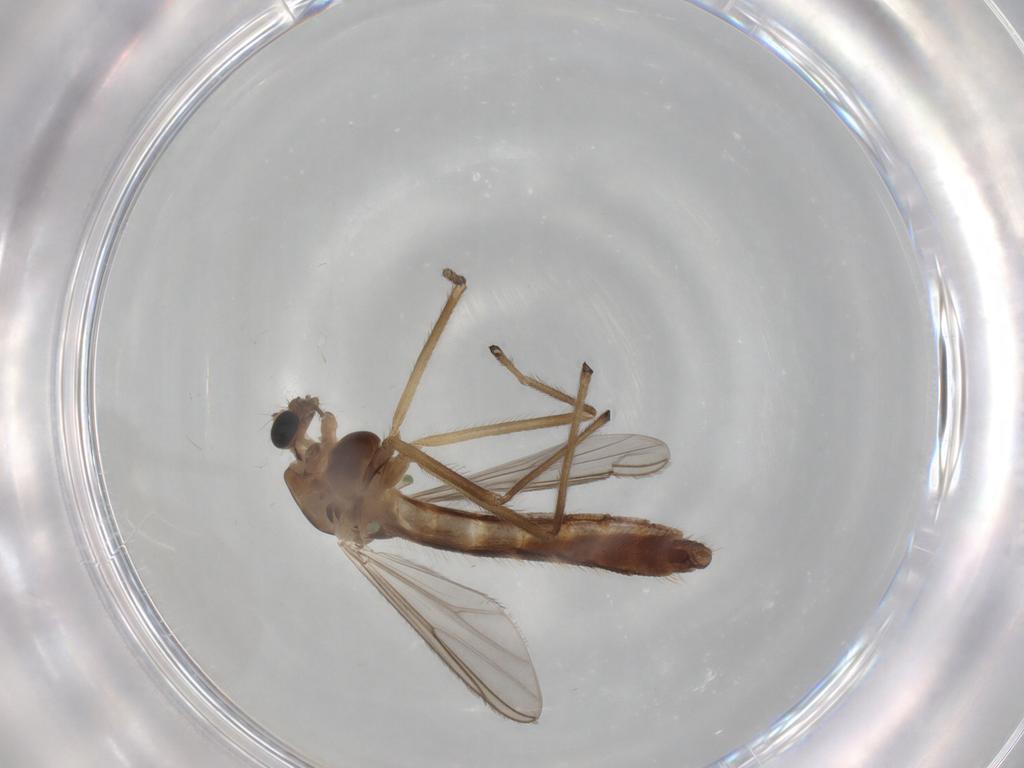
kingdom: Animalia
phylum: Arthropoda
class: Insecta
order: Diptera
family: Chironomidae
